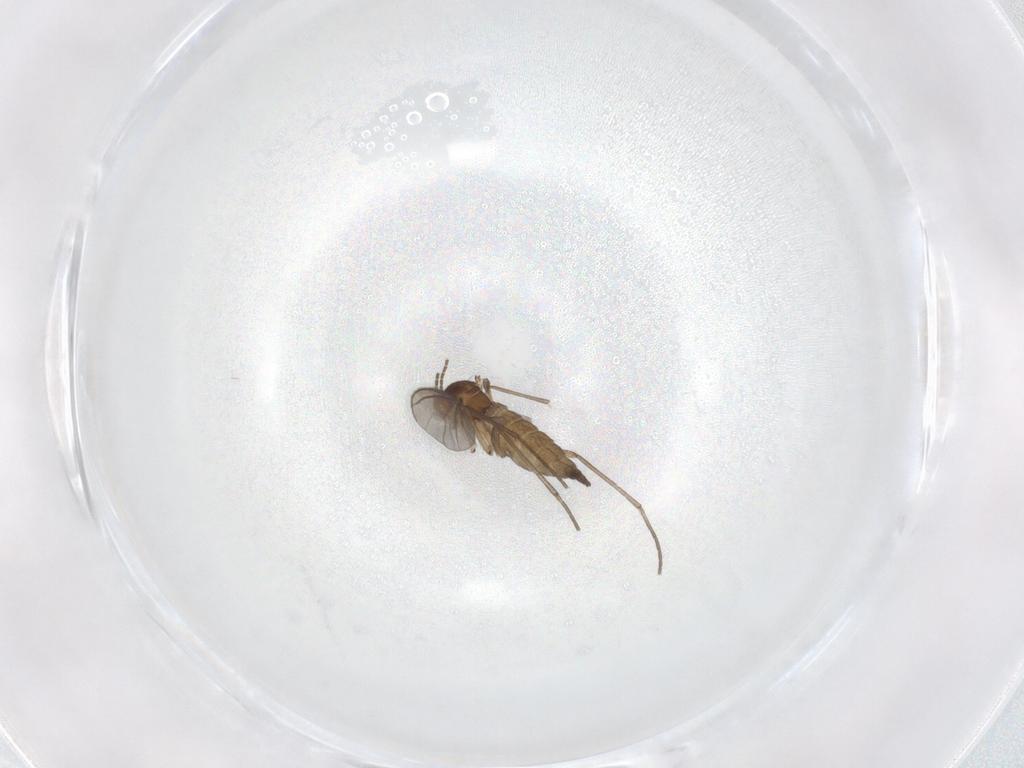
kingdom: Animalia
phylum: Arthropoda
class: Insecta
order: Diptera
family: Sciaridae
